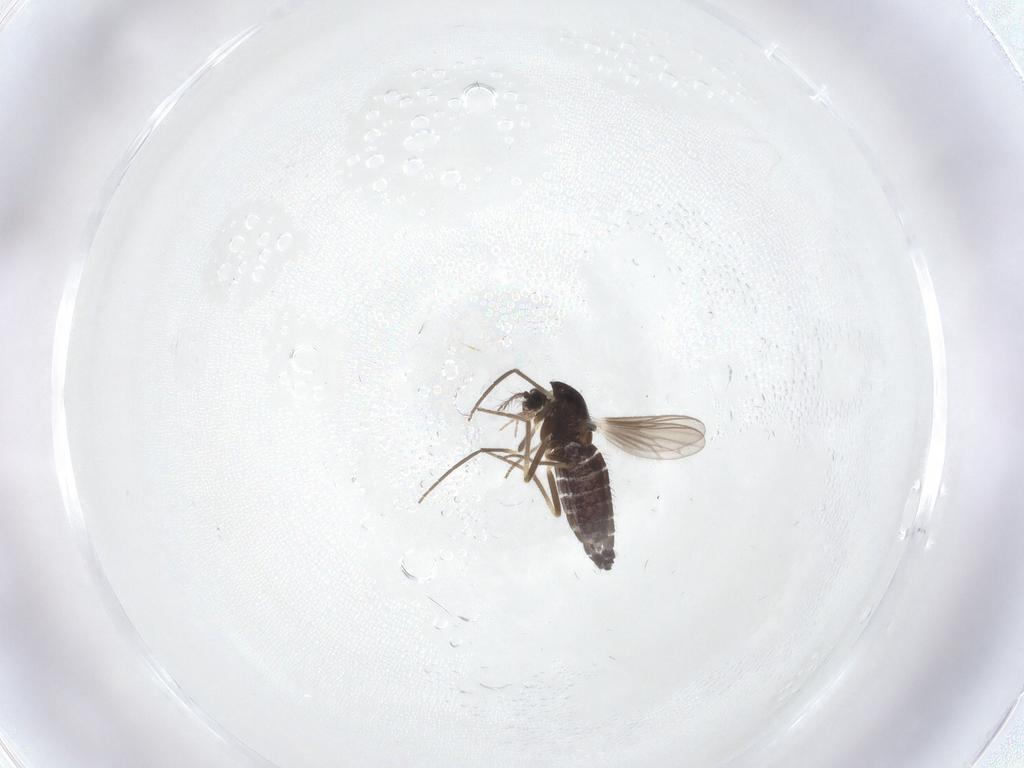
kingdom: Animalia
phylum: Arthropoda
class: Insecta
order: Diptera
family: Chironomidae
